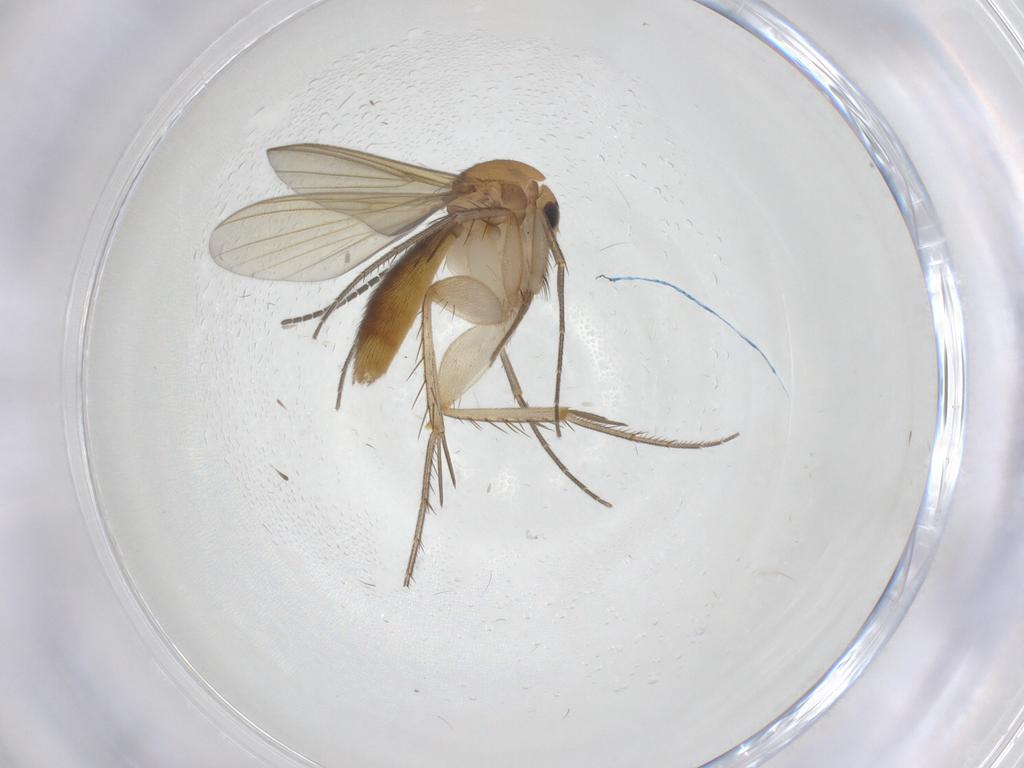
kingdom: Animalia
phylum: Arthropoda
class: Insecta
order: Diptera
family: Mycetophilidae
